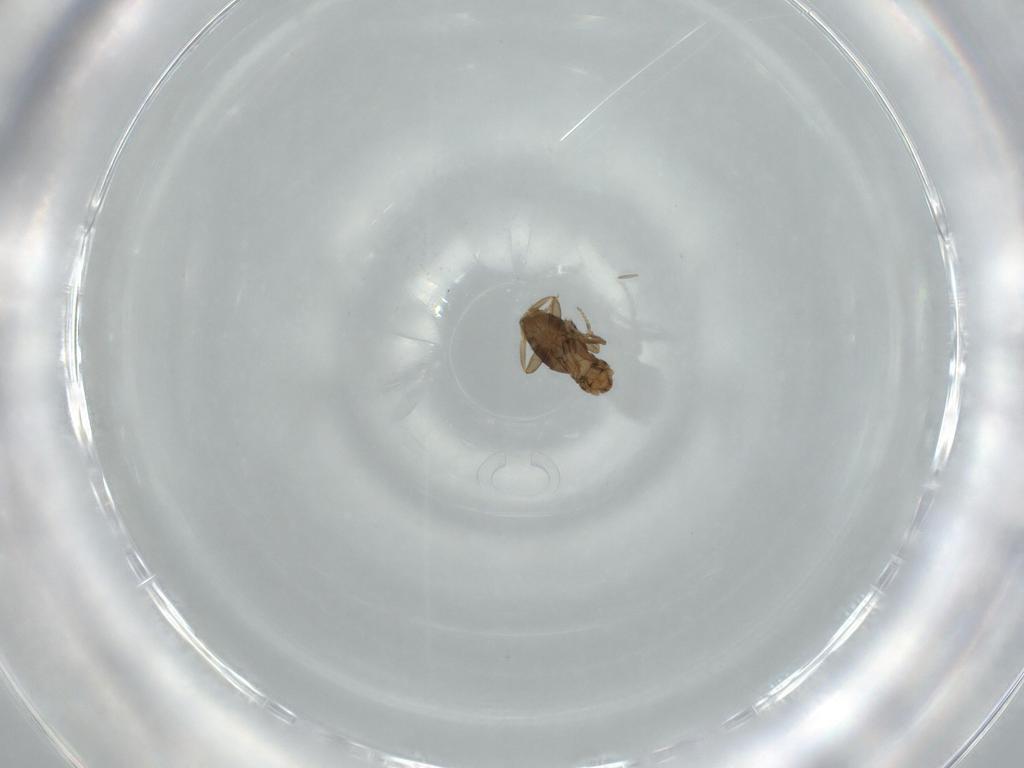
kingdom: Animalia
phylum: Arthropoda
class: Insecta
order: Diptera
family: Phoridae
